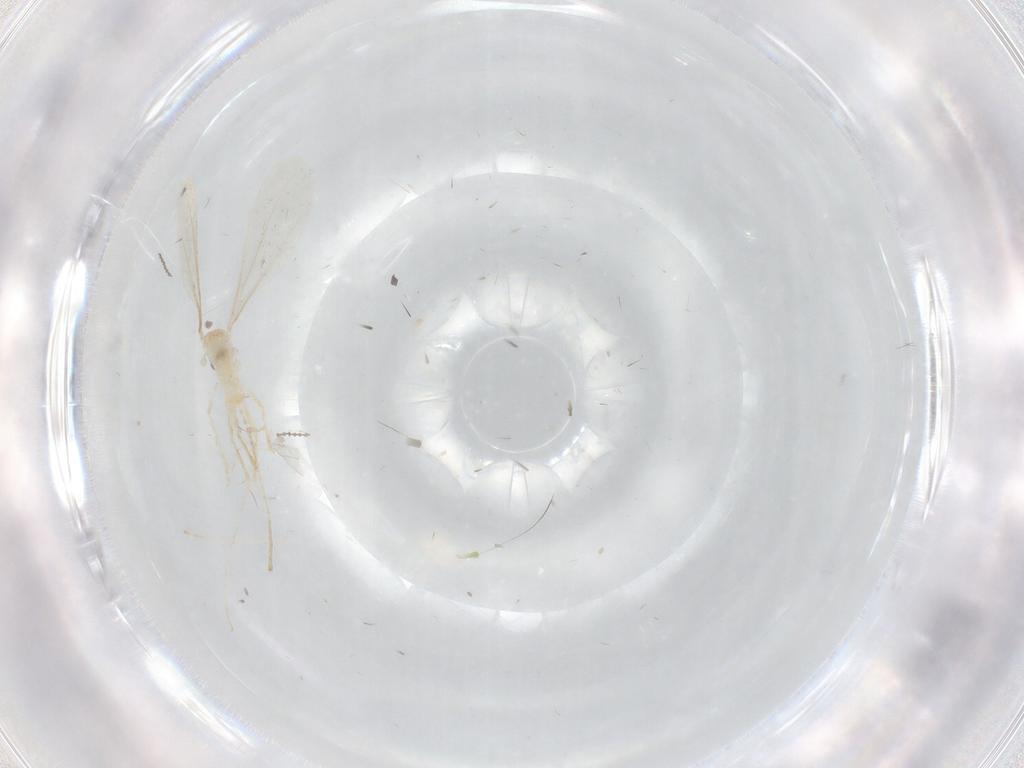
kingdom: Animalia
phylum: Arthropoda
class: Insecta
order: Diptera
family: Cecidomyiidae
